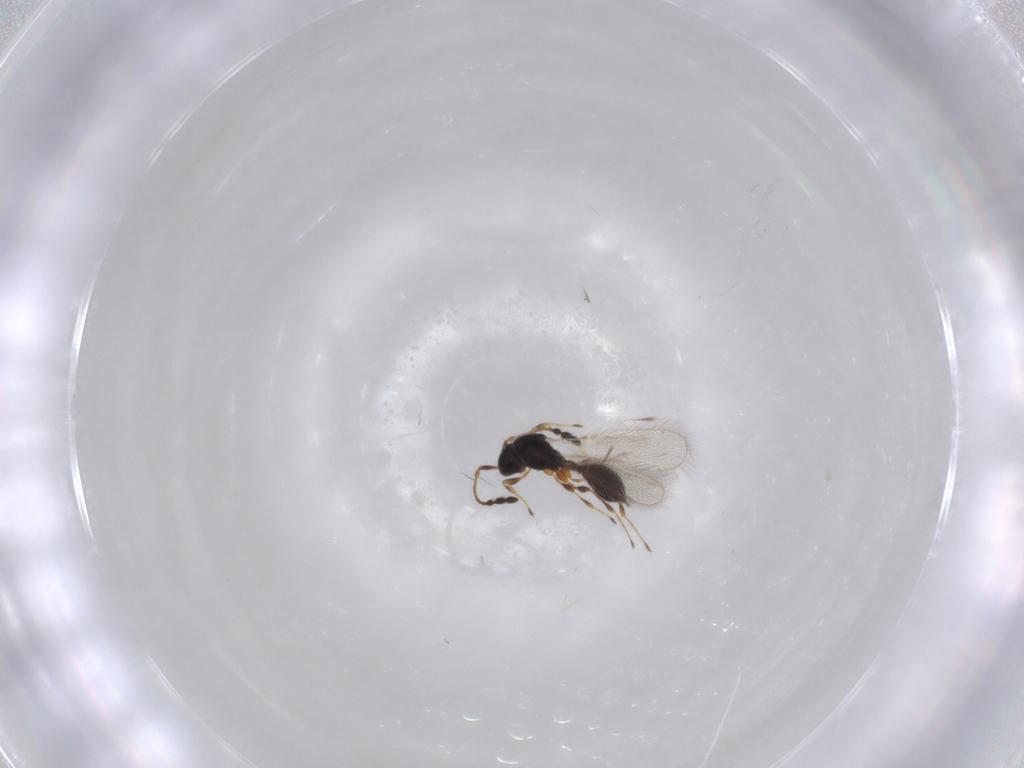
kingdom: Animalia
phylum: Arthropoda
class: Insecta
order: Hymenoptera
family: Diapriidae
